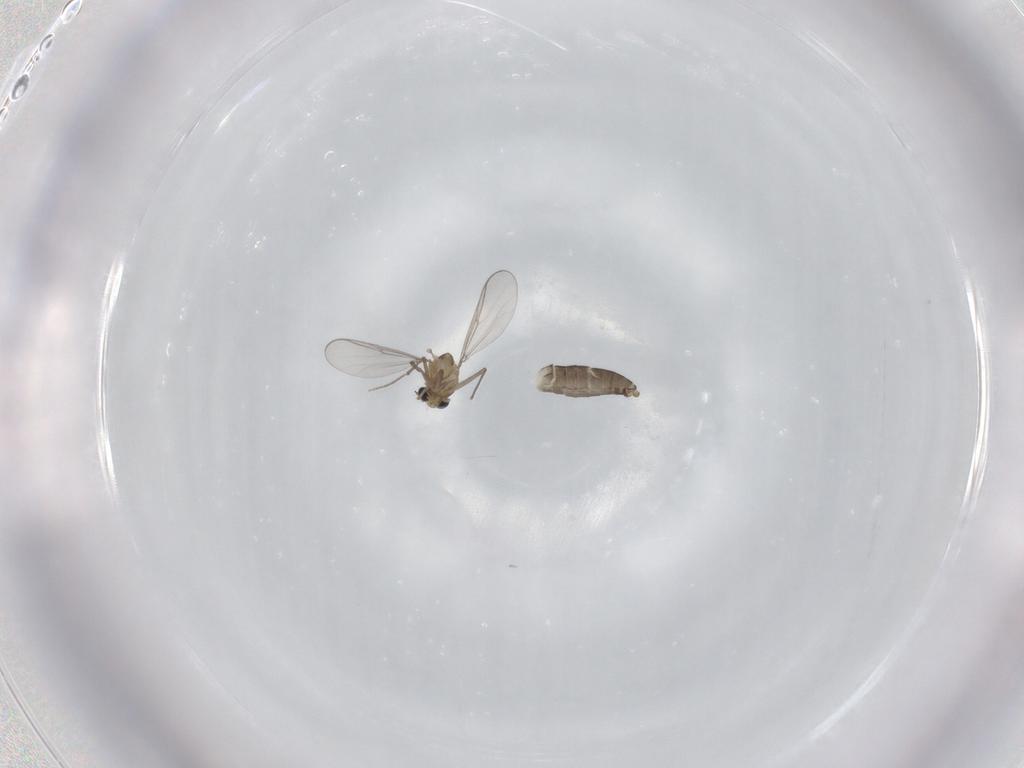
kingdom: Animalia
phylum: Arthropoda
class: Insecta
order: Diptera
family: Chironomidae
